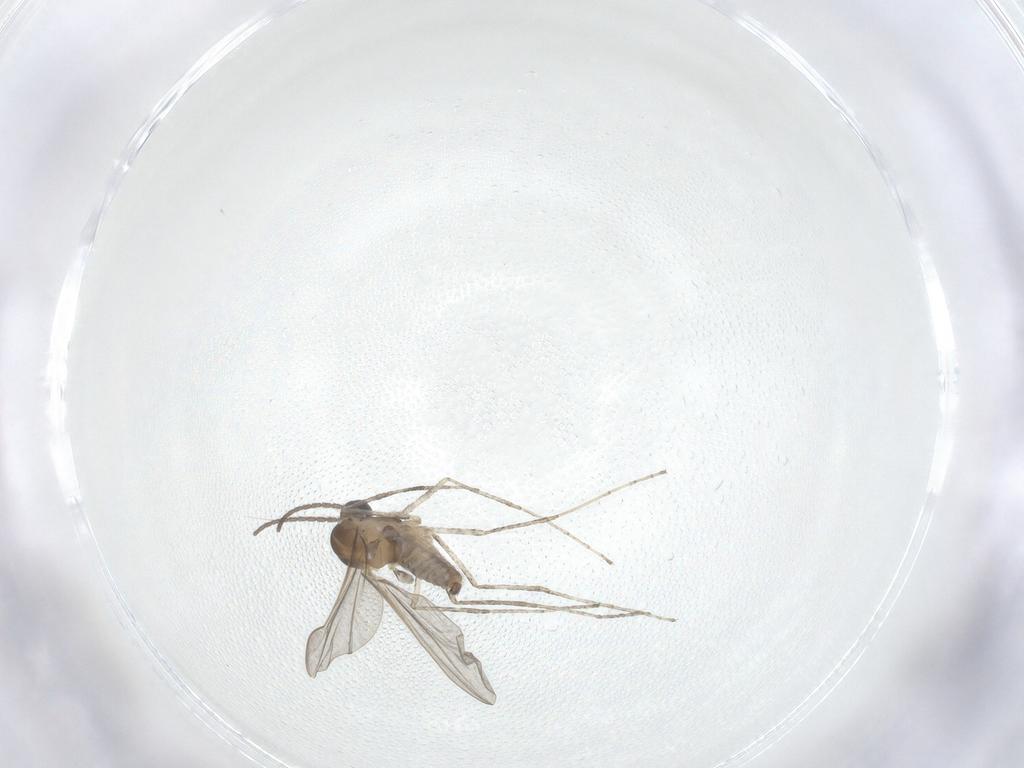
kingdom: Animalia
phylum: Arthropoda
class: Insecta
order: Diptera
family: Cecidomyiidae
